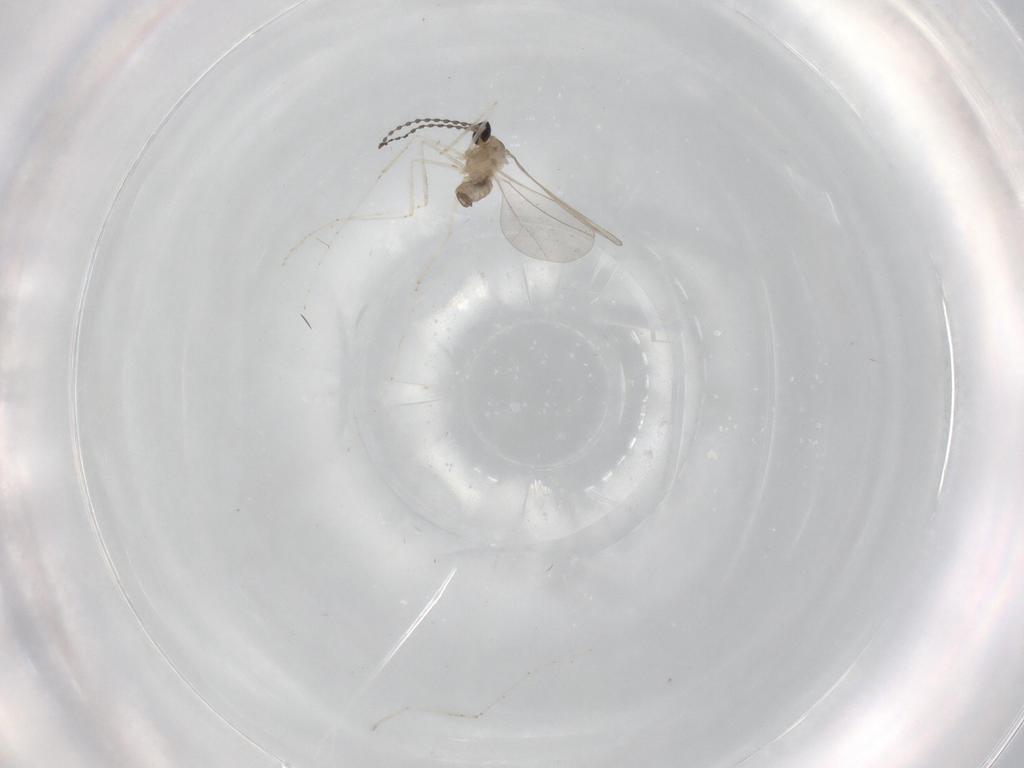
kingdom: Animalia
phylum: Arthropoda
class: Insecta
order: Diptera
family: Cecidomyiidae
